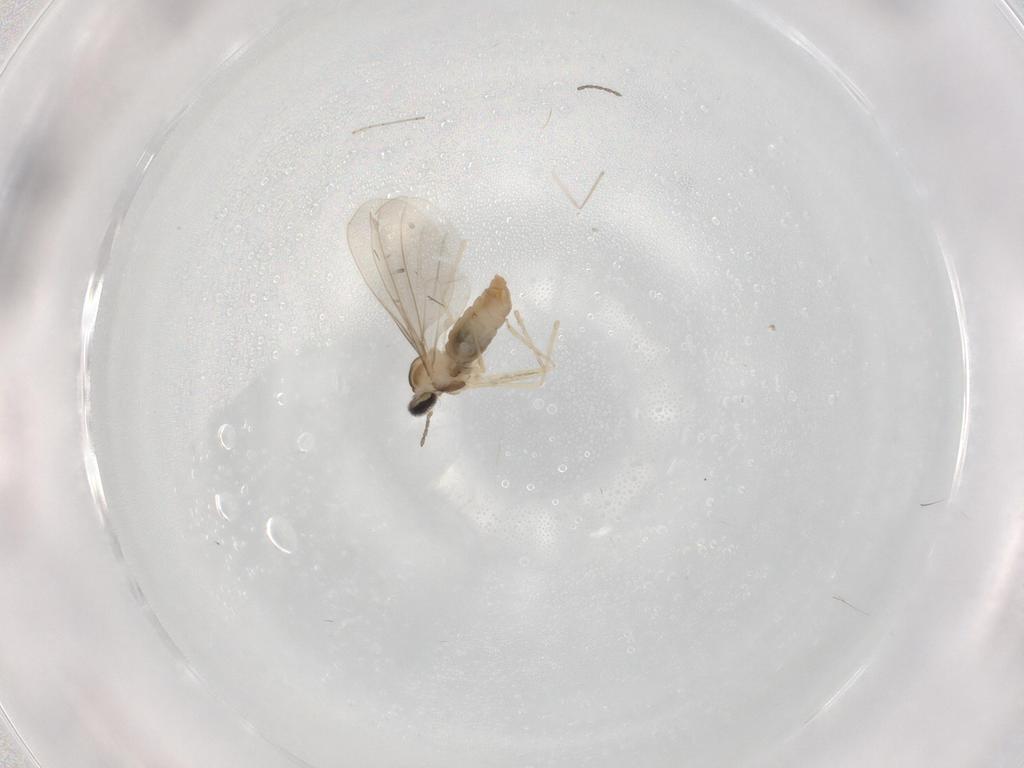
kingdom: Animalia
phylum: Arthropoda
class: Insecta
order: Diptera
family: Cecidomyiidae
